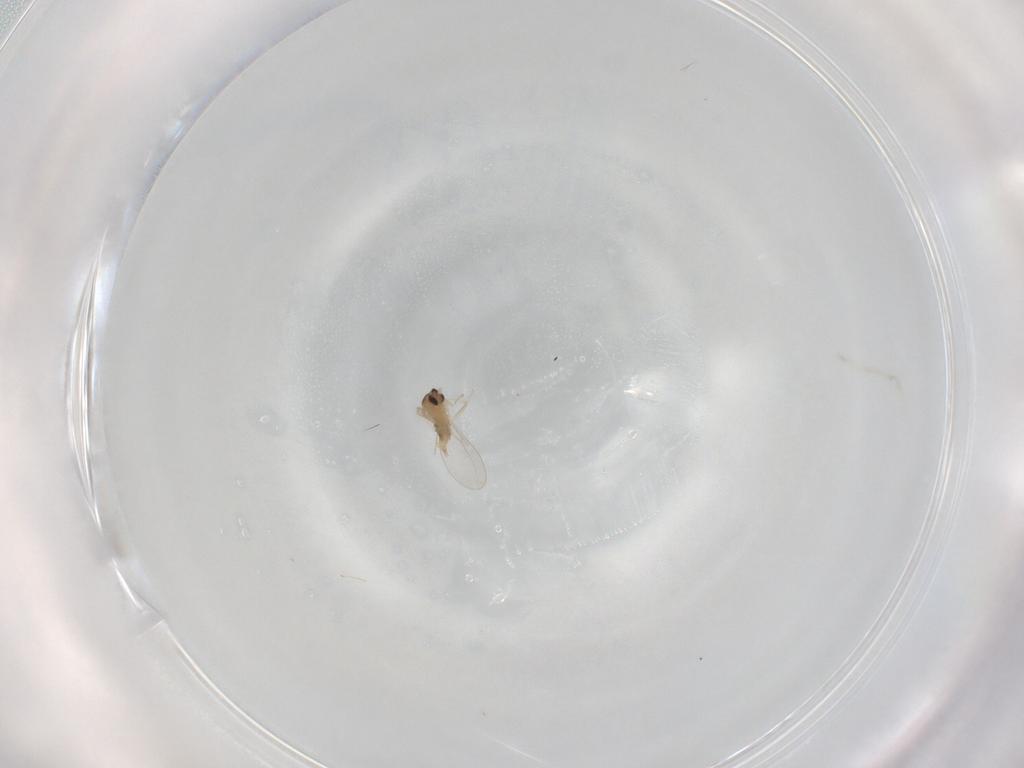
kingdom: Animalia
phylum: Arthropoda
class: Insecta
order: Diptera
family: Cecidomyiidae
